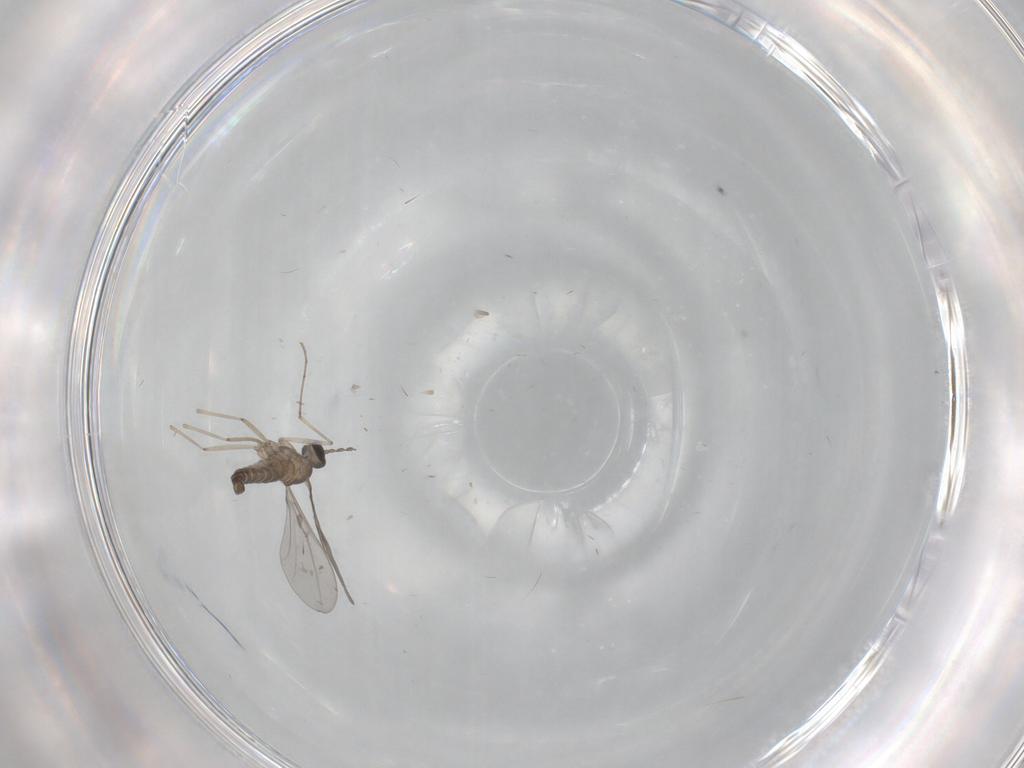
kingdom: Animalia
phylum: Arthropoda
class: Insecta
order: Diptera
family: Cecidomyiidae
